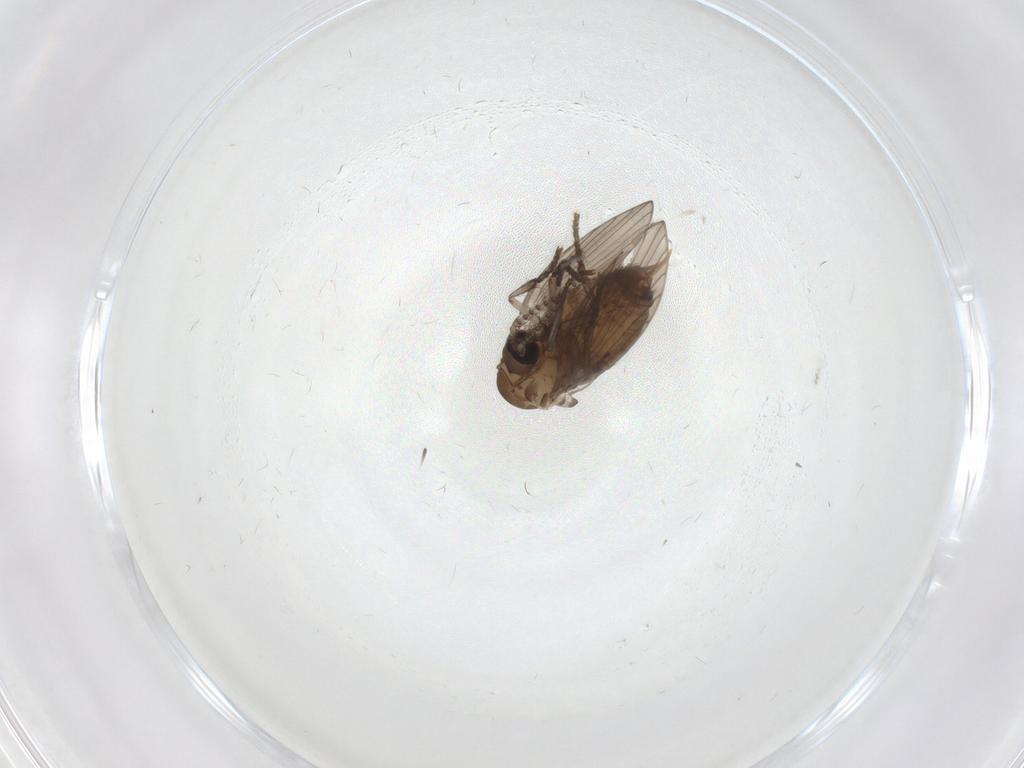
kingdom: Animalia
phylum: Arthropoda
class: Insecta
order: Diptera
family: Psychodidae
